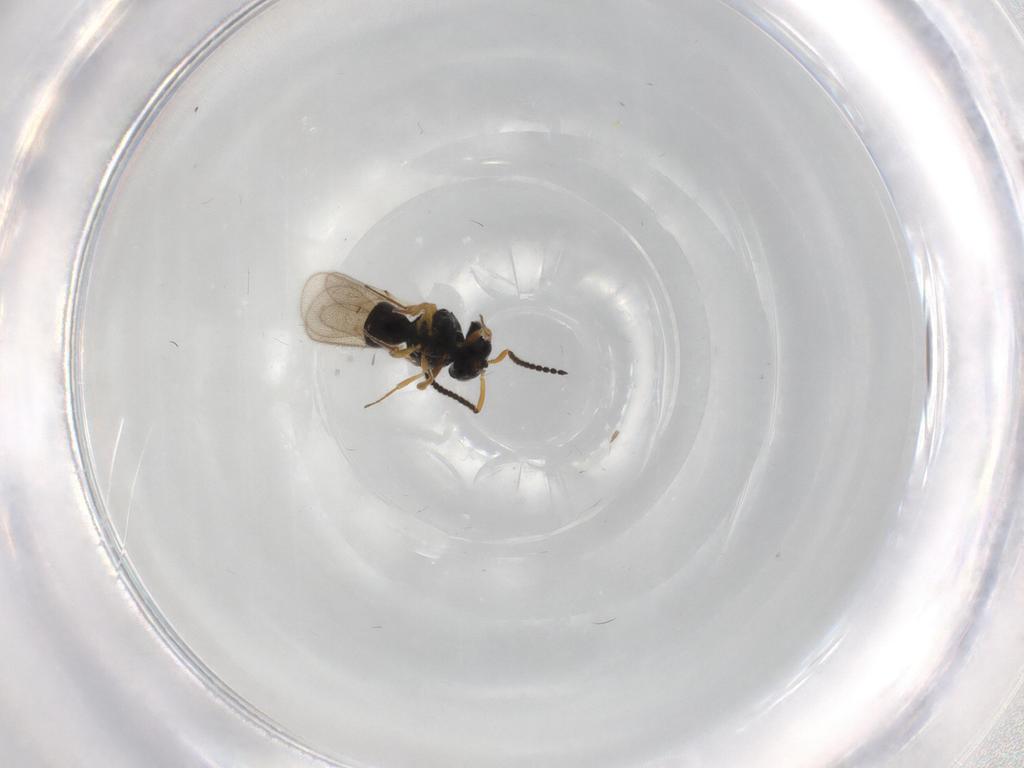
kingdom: Animalia
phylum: Arthropoda
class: Insecta
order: Hymenoptera
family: Scelionidae
